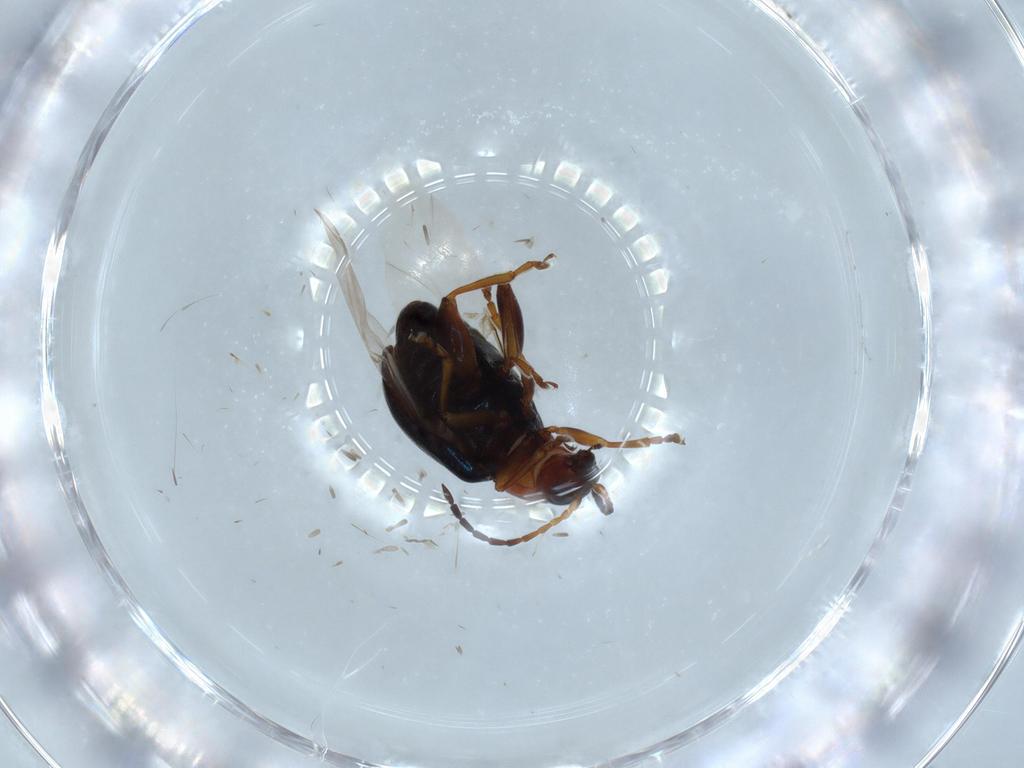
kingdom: Animalia
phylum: Arthropoda
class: Insecta
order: Coleoptera
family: Chrysomelidae
